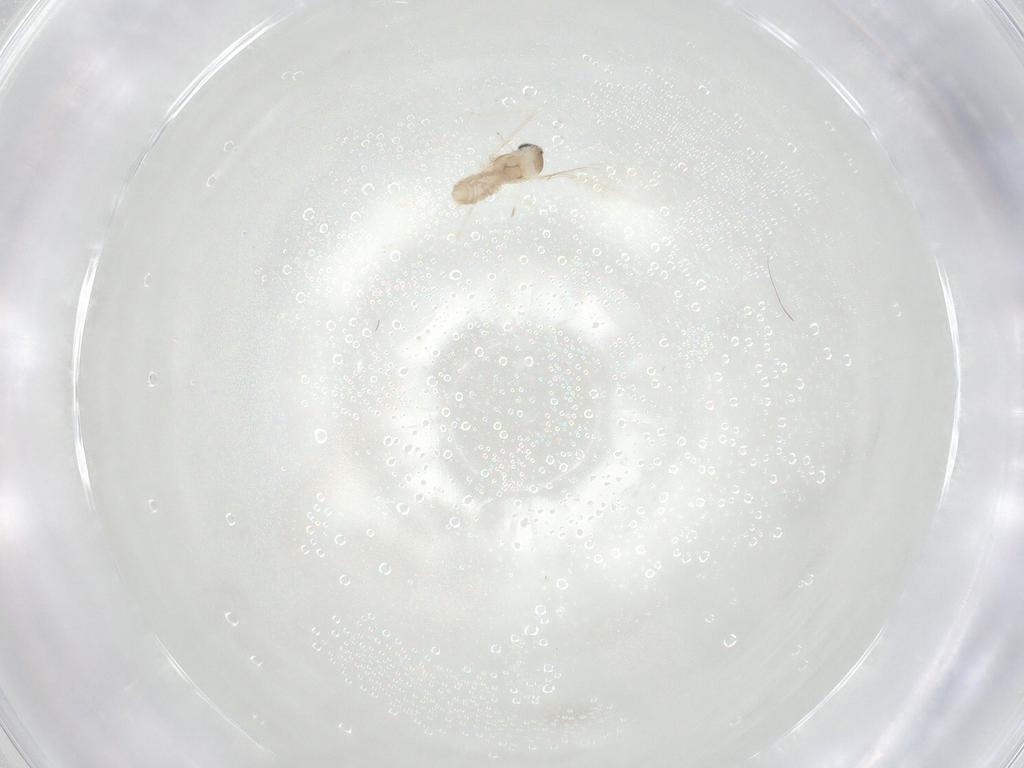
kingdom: Animalia
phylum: Arthropoda
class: Insecta
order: Diptera
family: Cecidomyiidae
